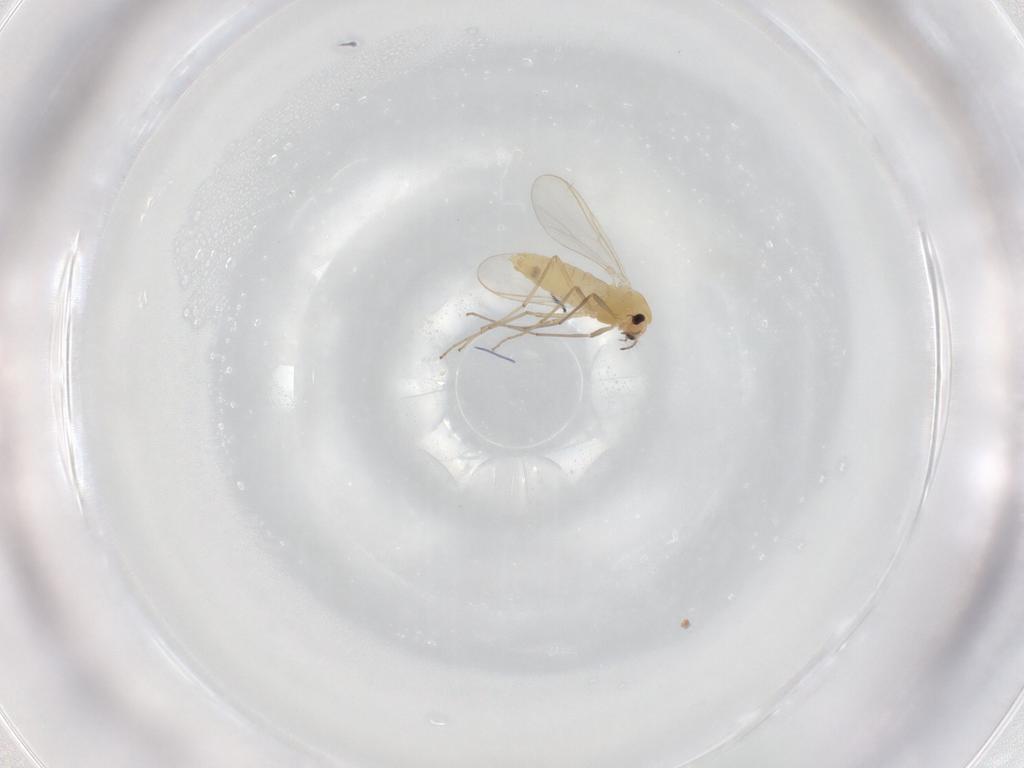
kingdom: Animalia
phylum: Arthropoda
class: Insecta
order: Diptera
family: Chironomidae
